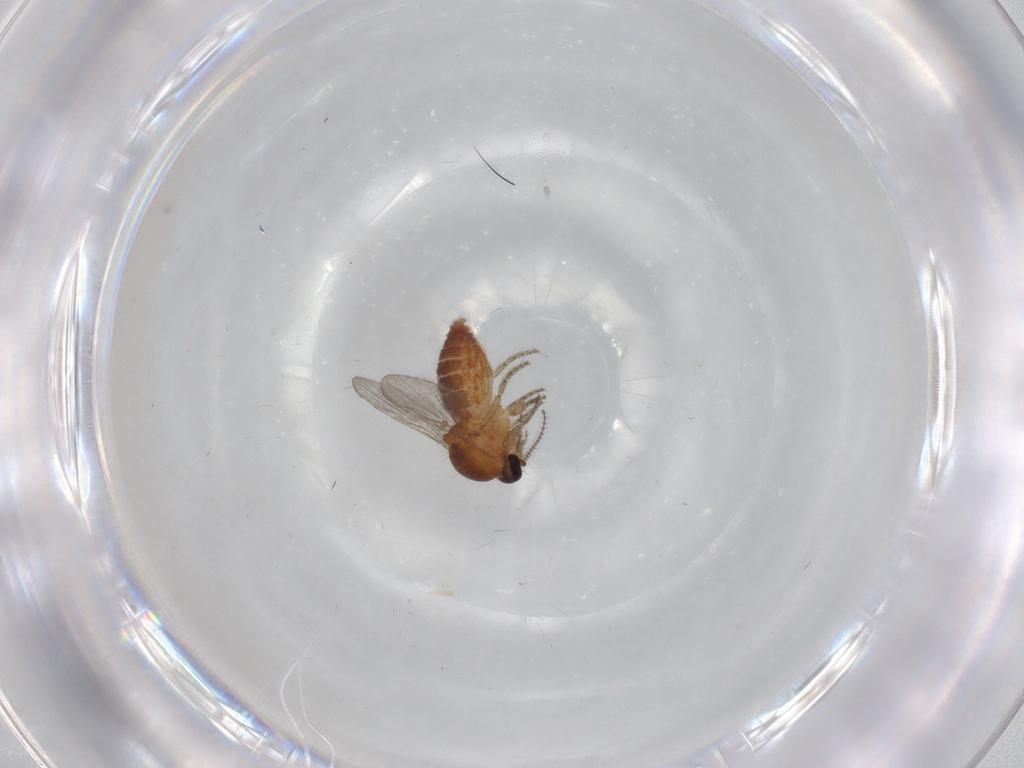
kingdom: Animalia
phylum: Arthropoda
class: Insecta
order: Diptera
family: Ceratopogonidae
